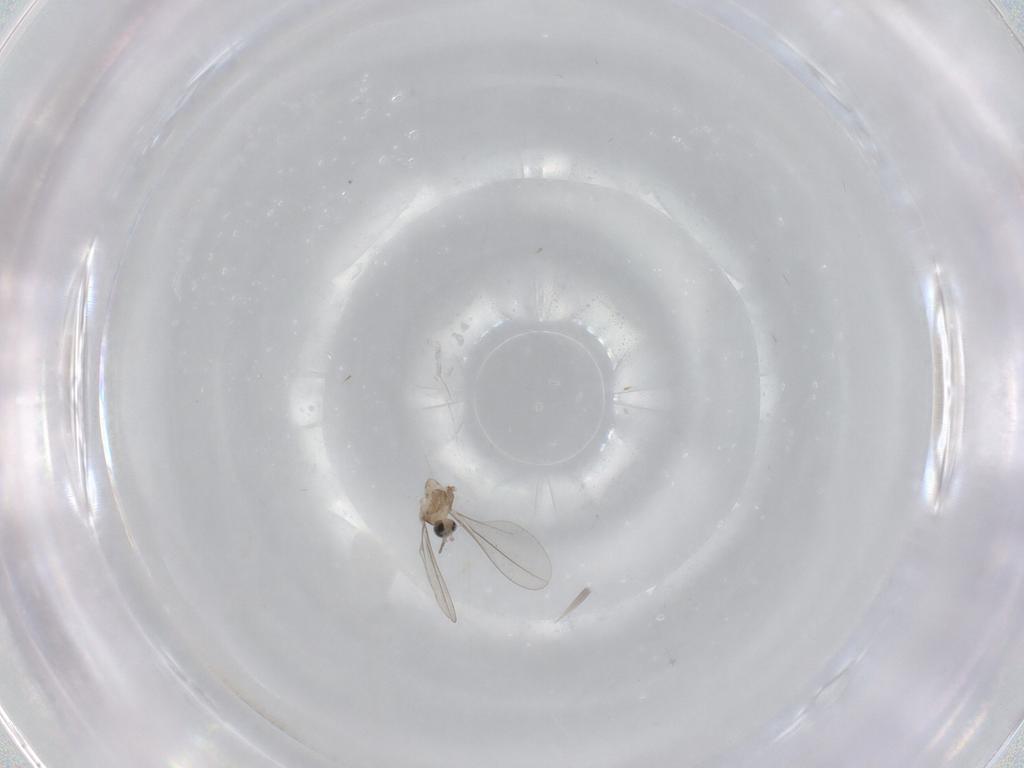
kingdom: Animalia
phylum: Arthropoda
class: Insecta
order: Diptera
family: Cecidomyiidae
